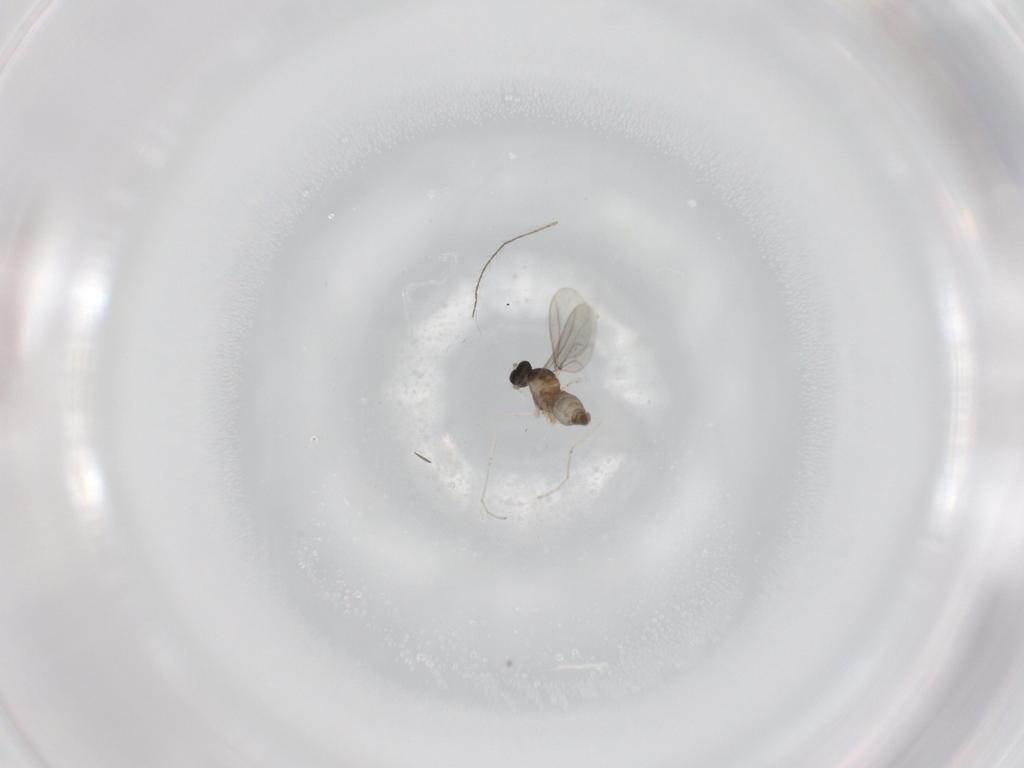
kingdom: Animalia
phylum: Arthropoda
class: Insecta
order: Diptera
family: Cecidomyiidae
